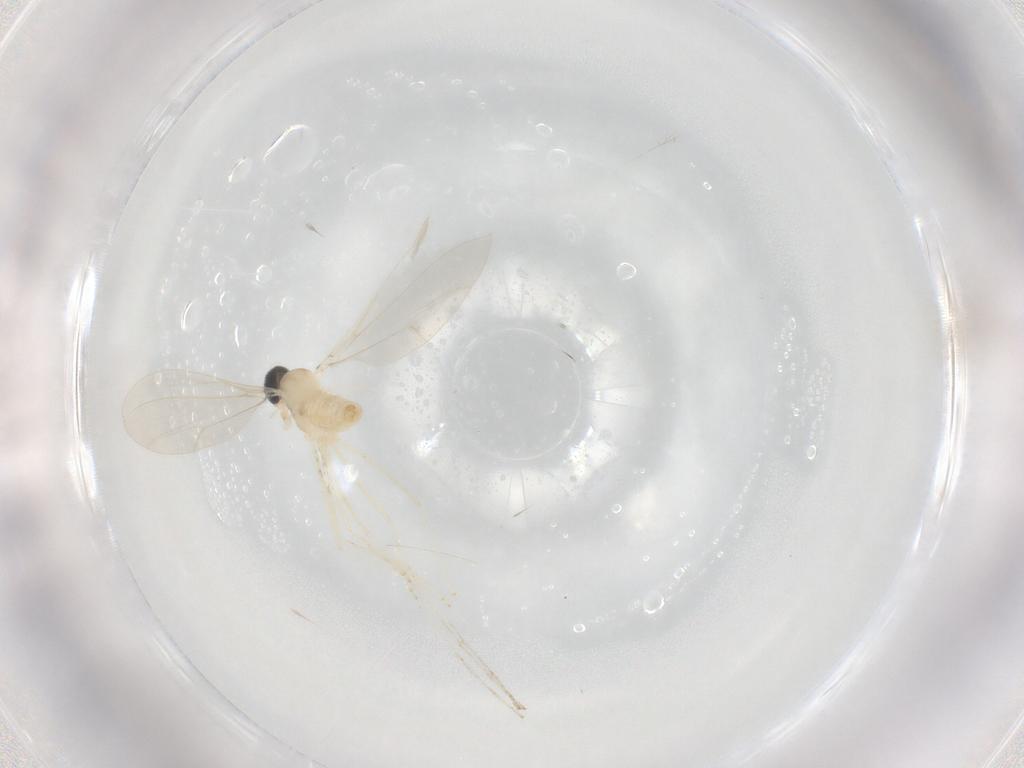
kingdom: Animalia
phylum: Arthropoda
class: Insecta
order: Diptera
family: Cecidomyiidae
